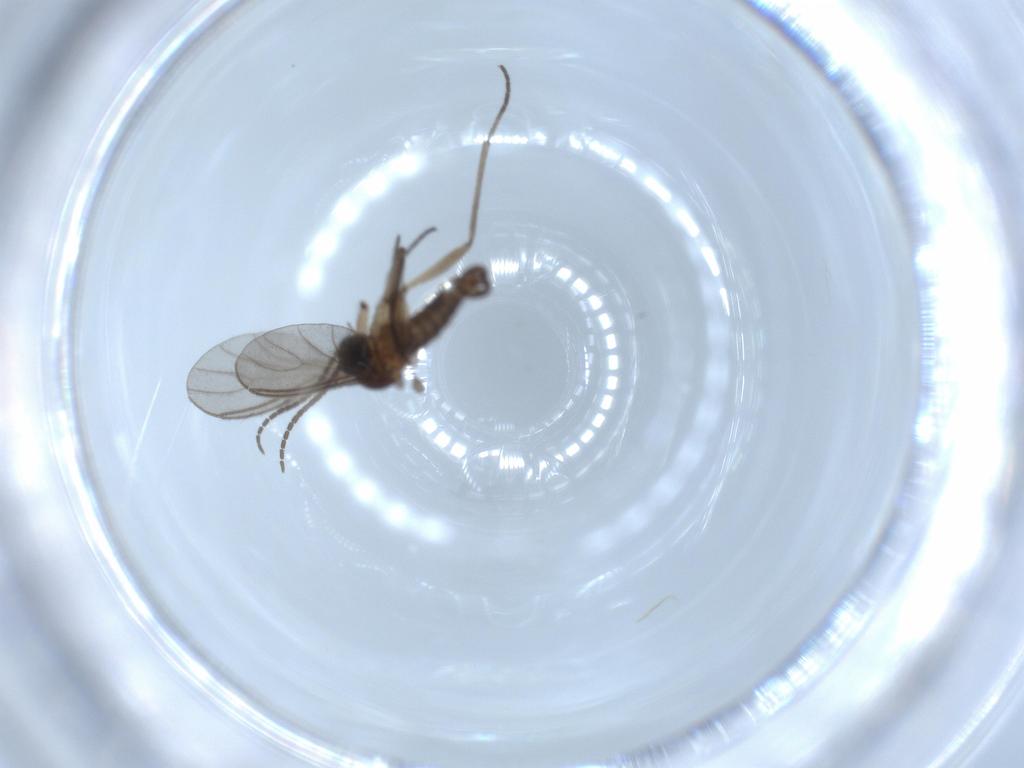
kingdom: Animalia
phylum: Arthropoda
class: Insecta
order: Diptera
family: Sciaridae
